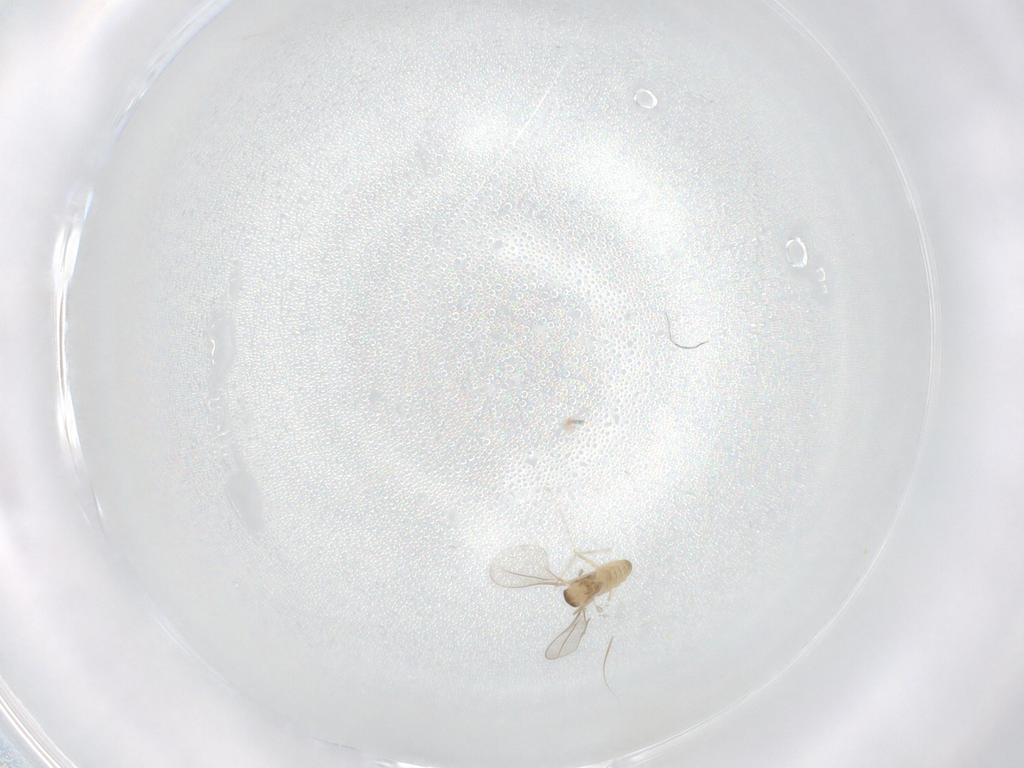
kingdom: Animalia
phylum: Arthropoda
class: Insecta
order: Diptera
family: Cecidomyiidae
